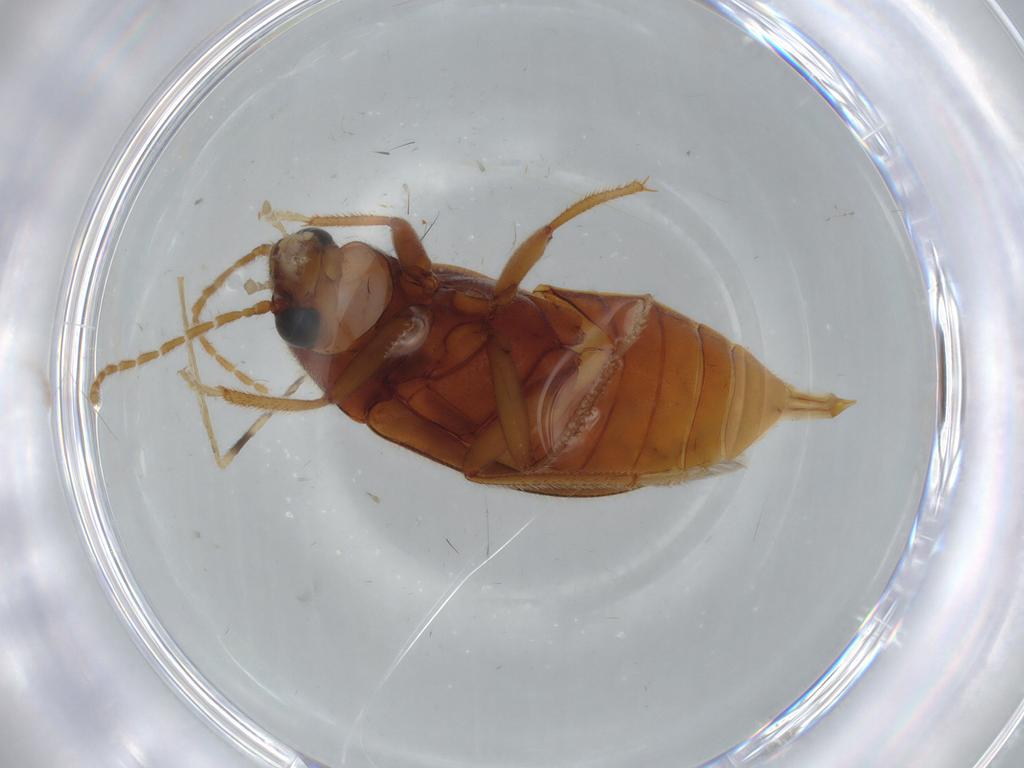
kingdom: Animalia
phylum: Arthropoda
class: Insecta
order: Coleoptera
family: Ptilodactylidae
